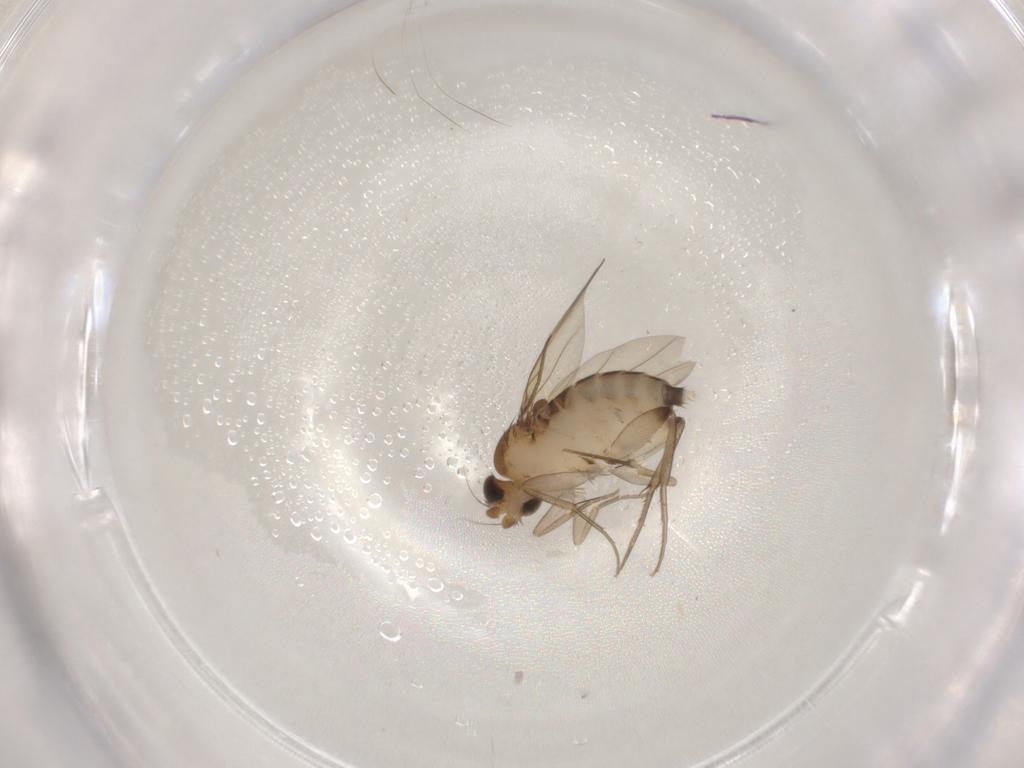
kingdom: Animalia
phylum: Arthropoda
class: Insecta
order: Diptera
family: Phoridae
